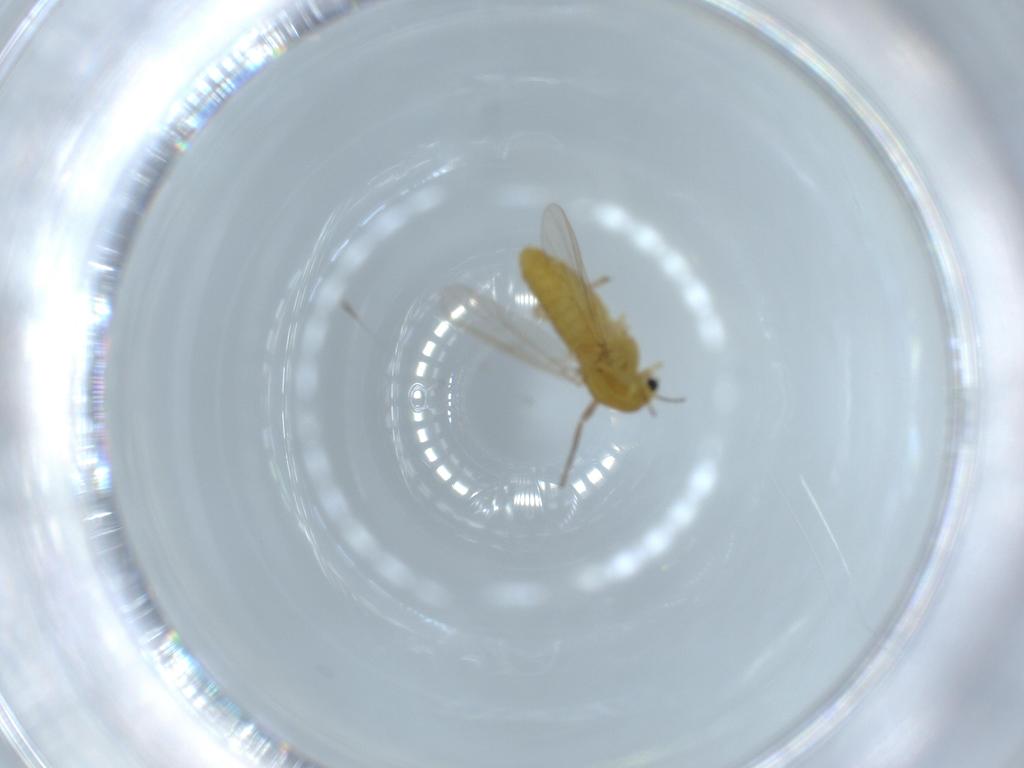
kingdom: Animalia
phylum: Arthropoda
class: Insecta
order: Diptera
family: Chironomidae
